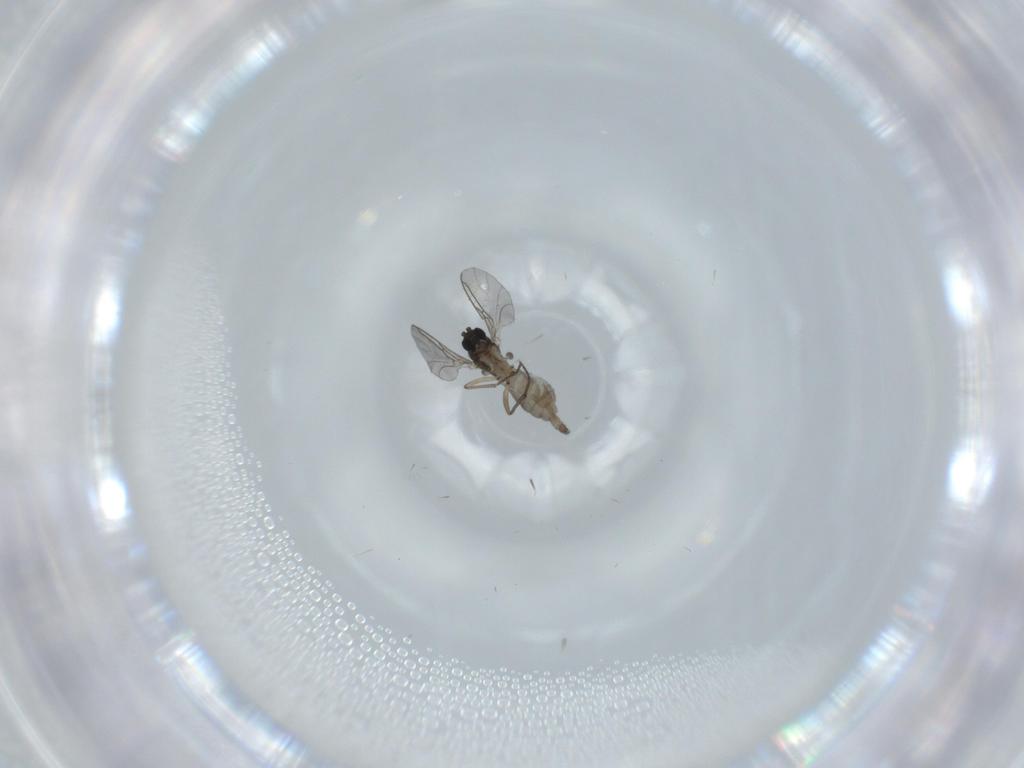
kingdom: Animalia
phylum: Arthropoda
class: Insecta
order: Diptera
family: Sciaridae
